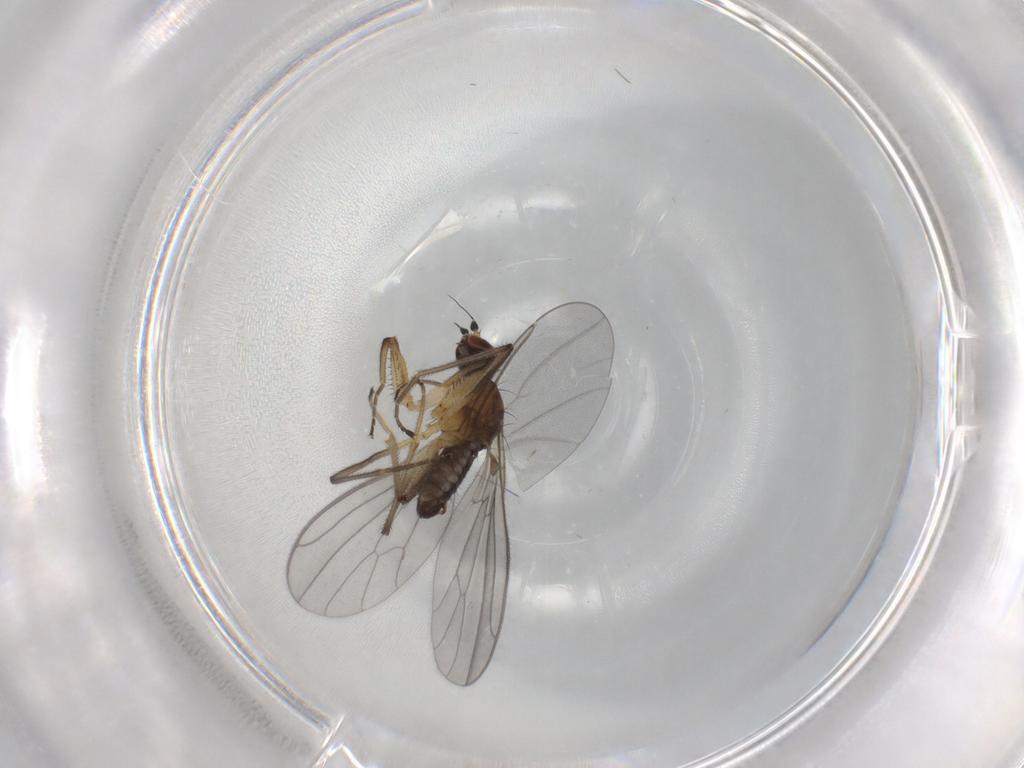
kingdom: Animalia
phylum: Arthropoda
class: Insecta
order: Diptera
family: Empididae
